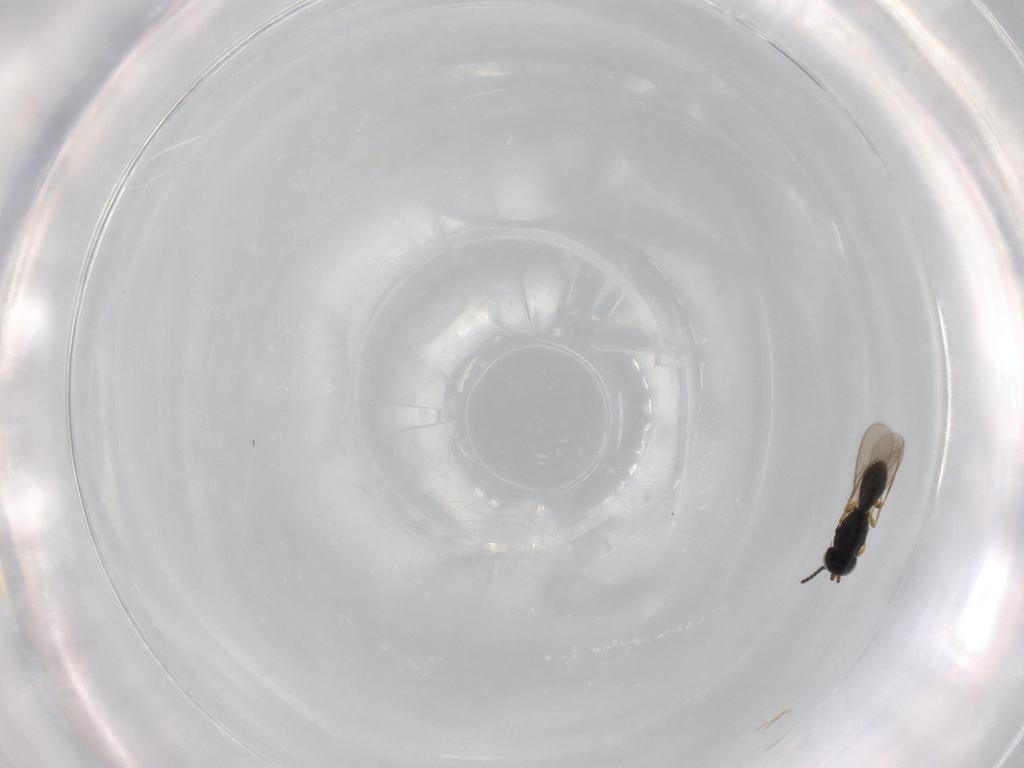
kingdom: Animalia
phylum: Arthropoda
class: Insecta
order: Hymenoptera
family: Scelionidae
